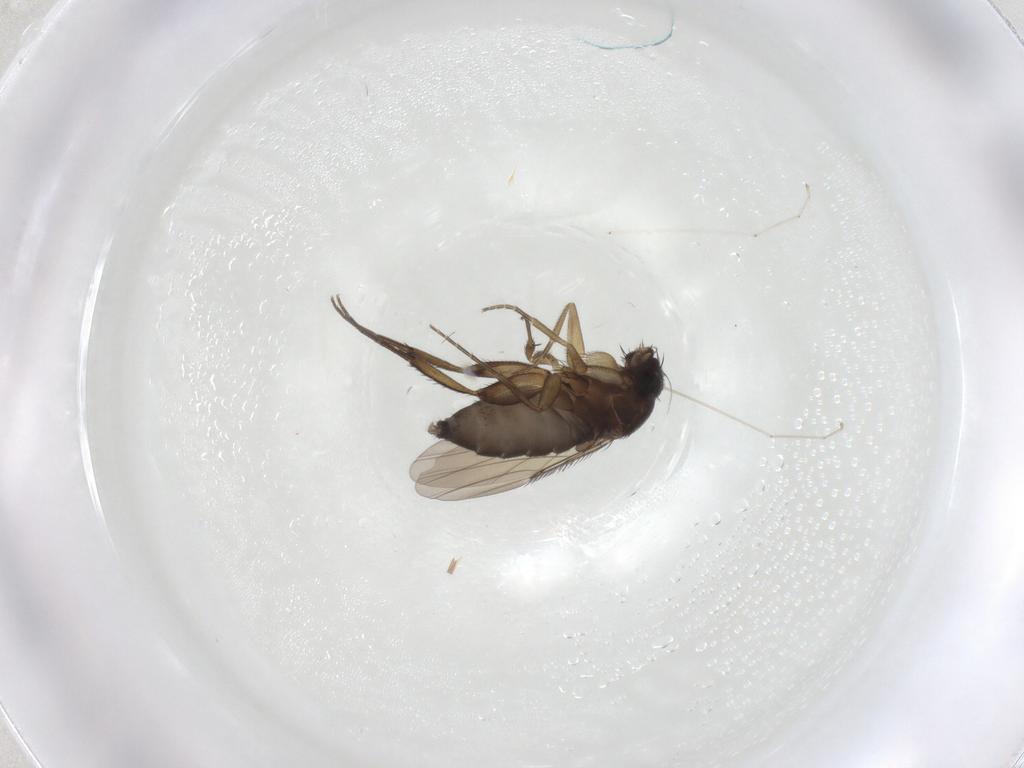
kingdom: Animalia
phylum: Arthropoda
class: Insecta
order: Diptera
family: Phoridae
